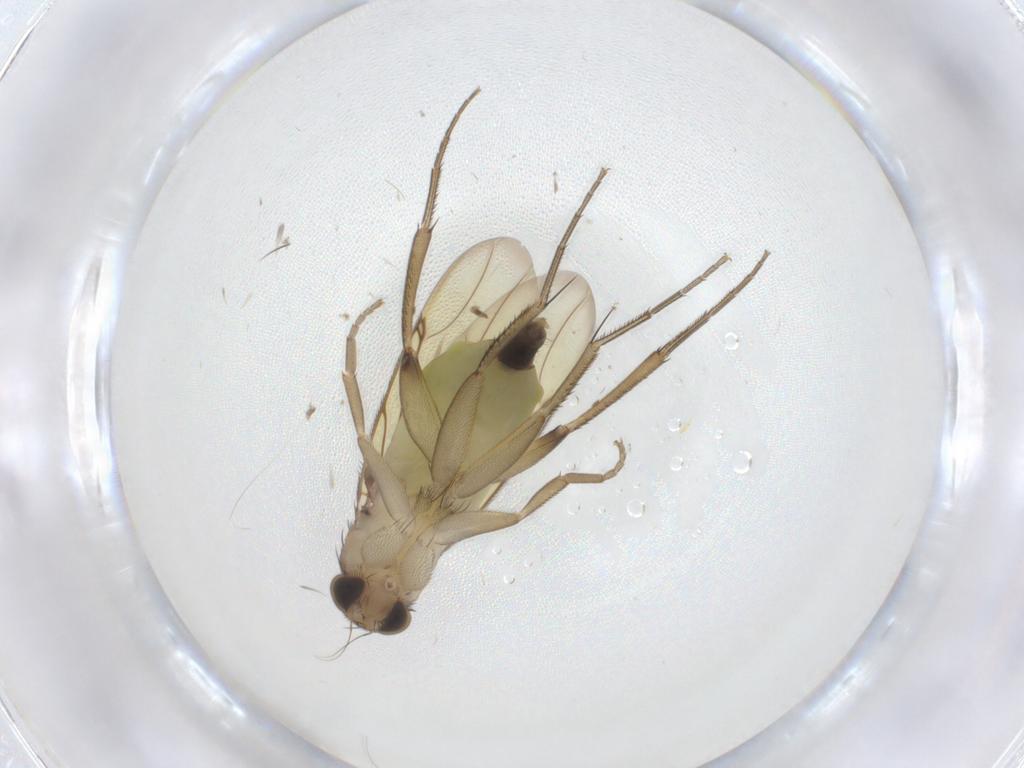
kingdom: Animalia
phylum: Arthropoda
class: Insecta
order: Diptera
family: Phoridae
